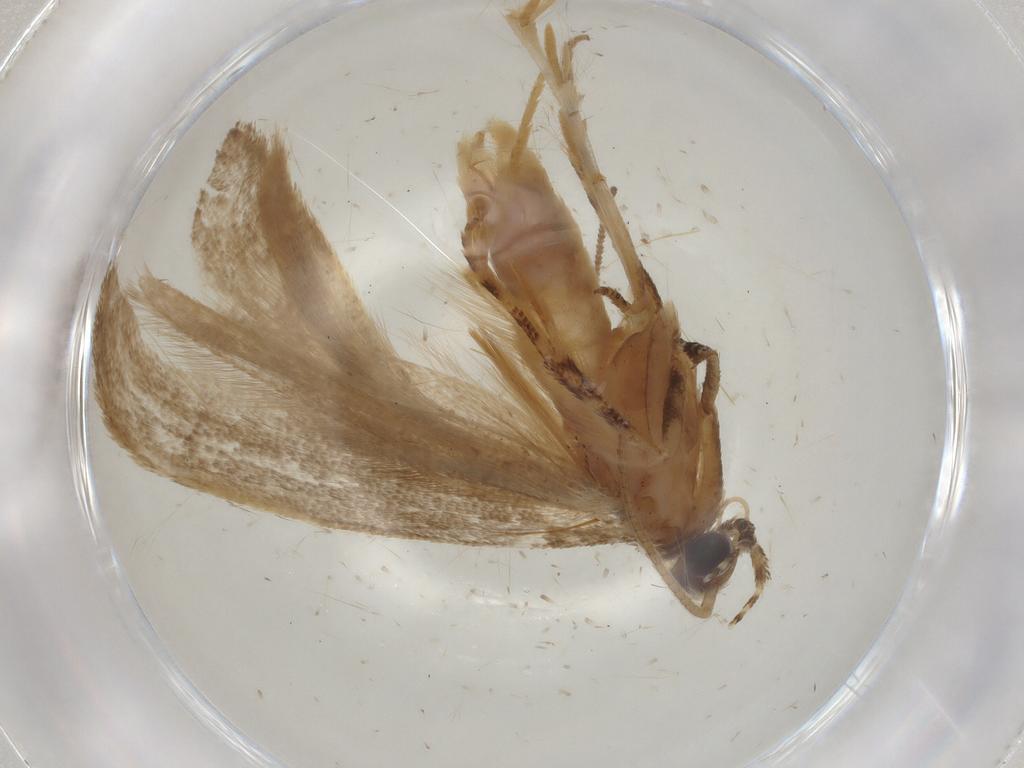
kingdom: Animalia
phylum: Arthropoda
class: Insecta
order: Lepidoptera
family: Gelechiidae
